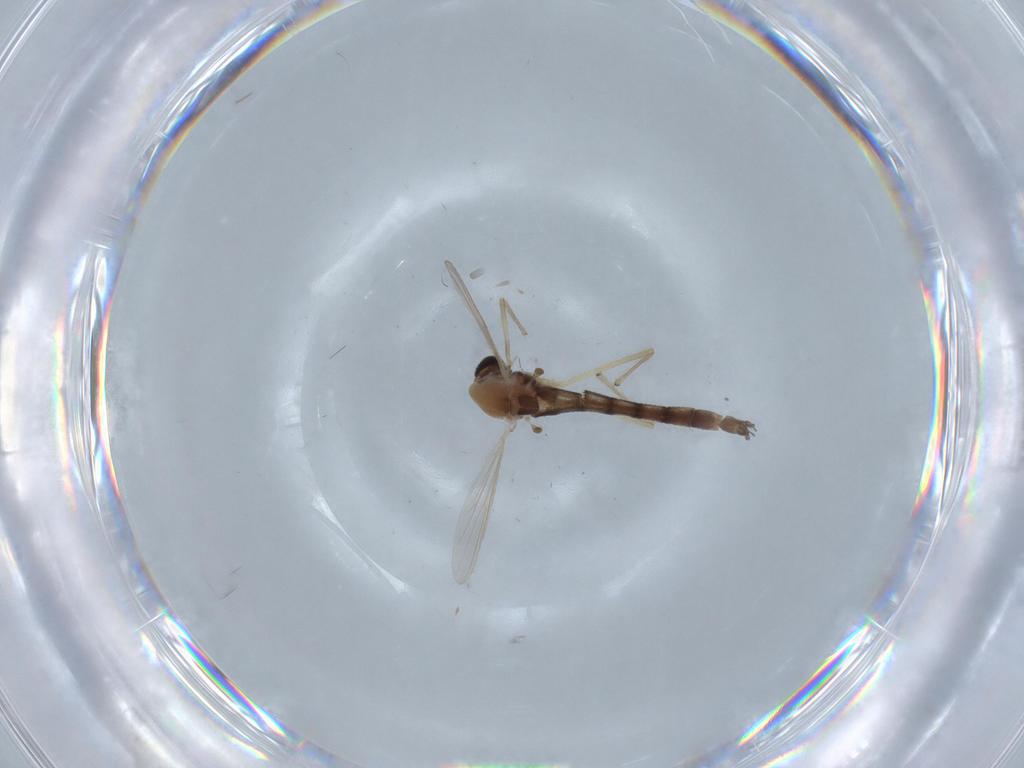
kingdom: Animalia
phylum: Arthropoda
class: Insecta
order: Diptera
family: Chironomidae
